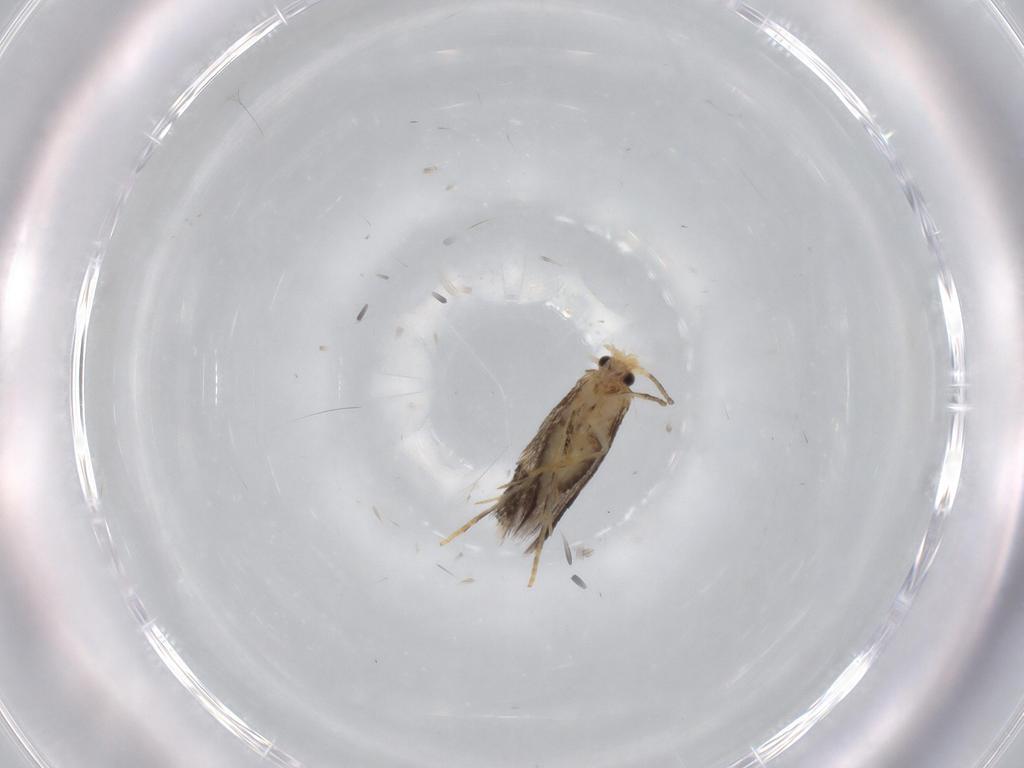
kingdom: Animalia
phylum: Arthropoda
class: Insecta
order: Lepidoptera
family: Nepticulidae
